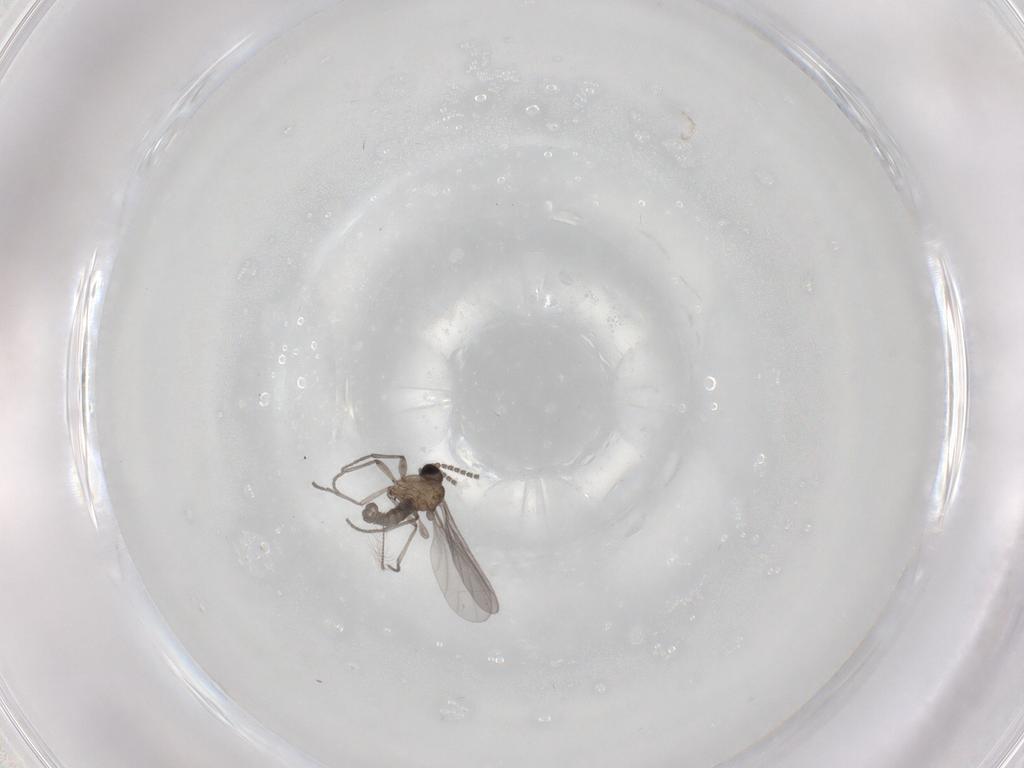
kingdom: Animalia
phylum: Arthropoda
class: Insecta
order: Diptera
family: Sciaridae
